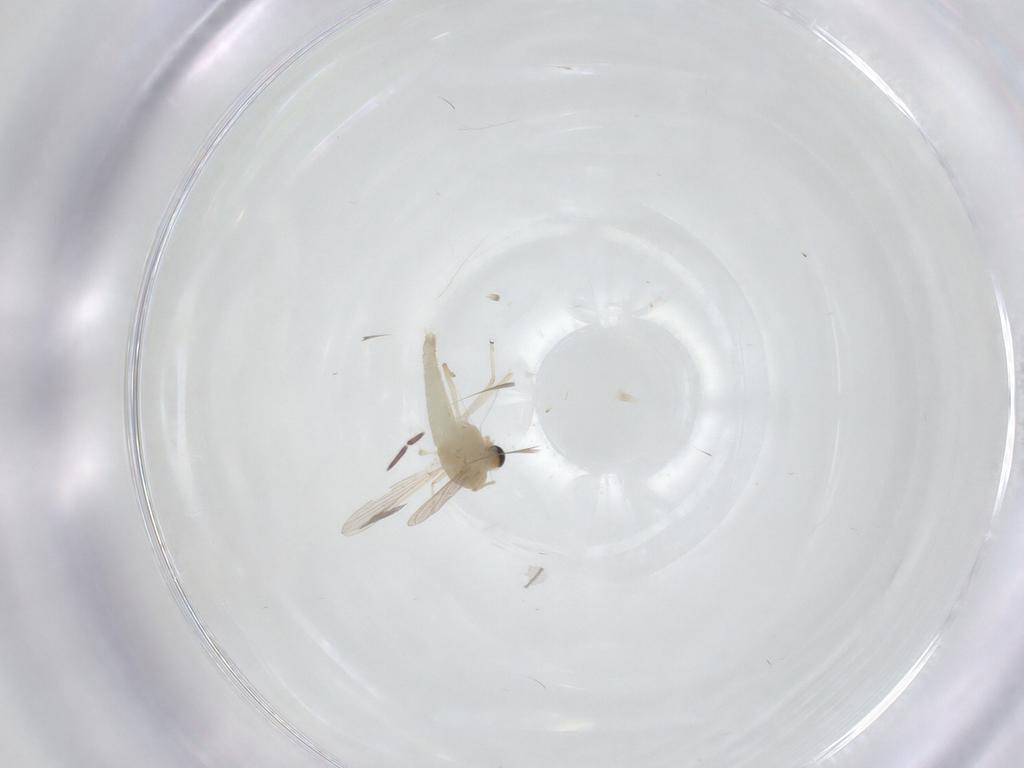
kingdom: Animalia
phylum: Arthropoda
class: Insecta
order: Diptera
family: Chironomidae
